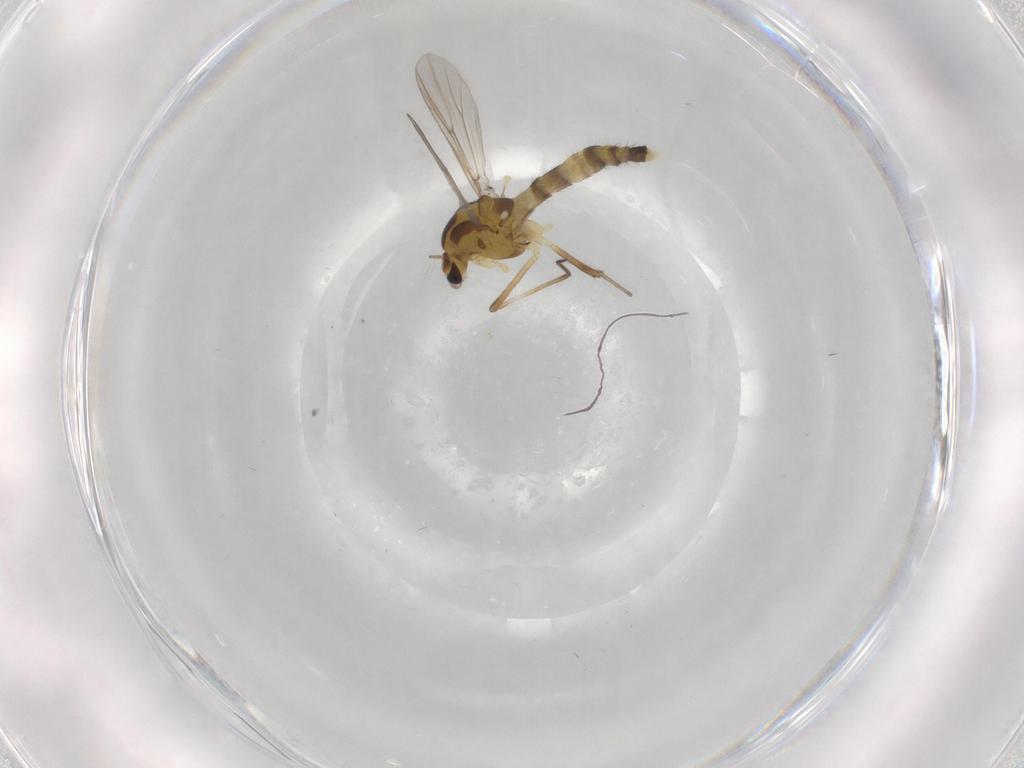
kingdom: Animalia
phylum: Arthropoda
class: Insecta
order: Diptera
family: Chironomidae
